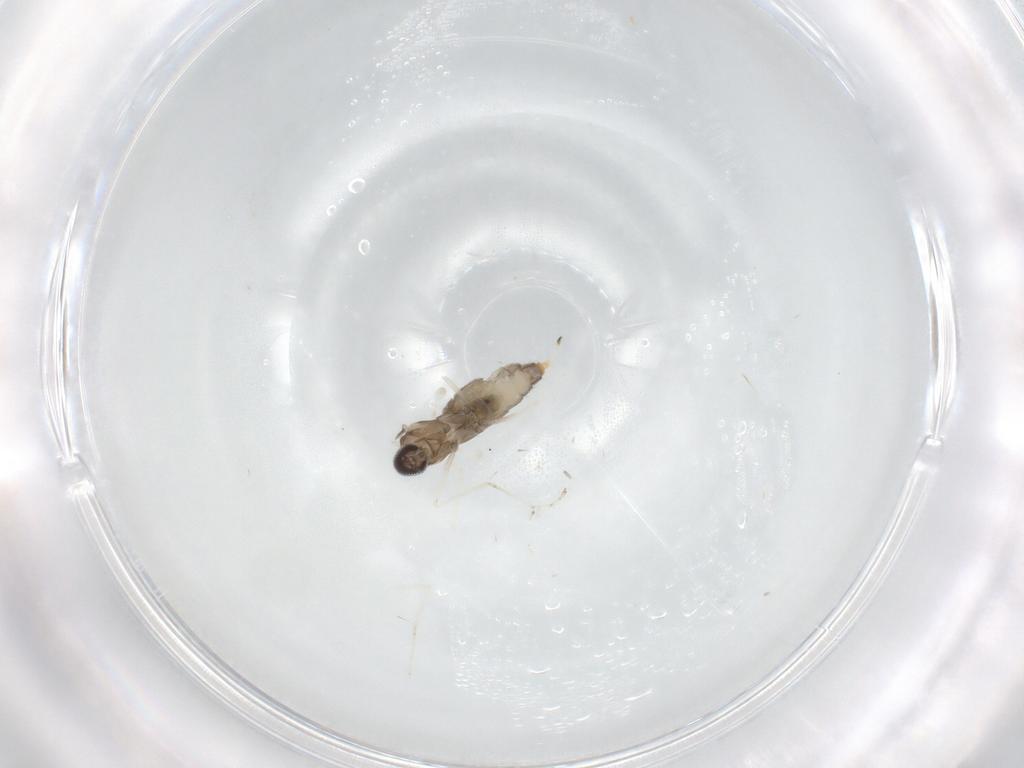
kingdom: Animalia
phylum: Arthropoda
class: Insecta
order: Diptera
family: Cecidomyiidae
